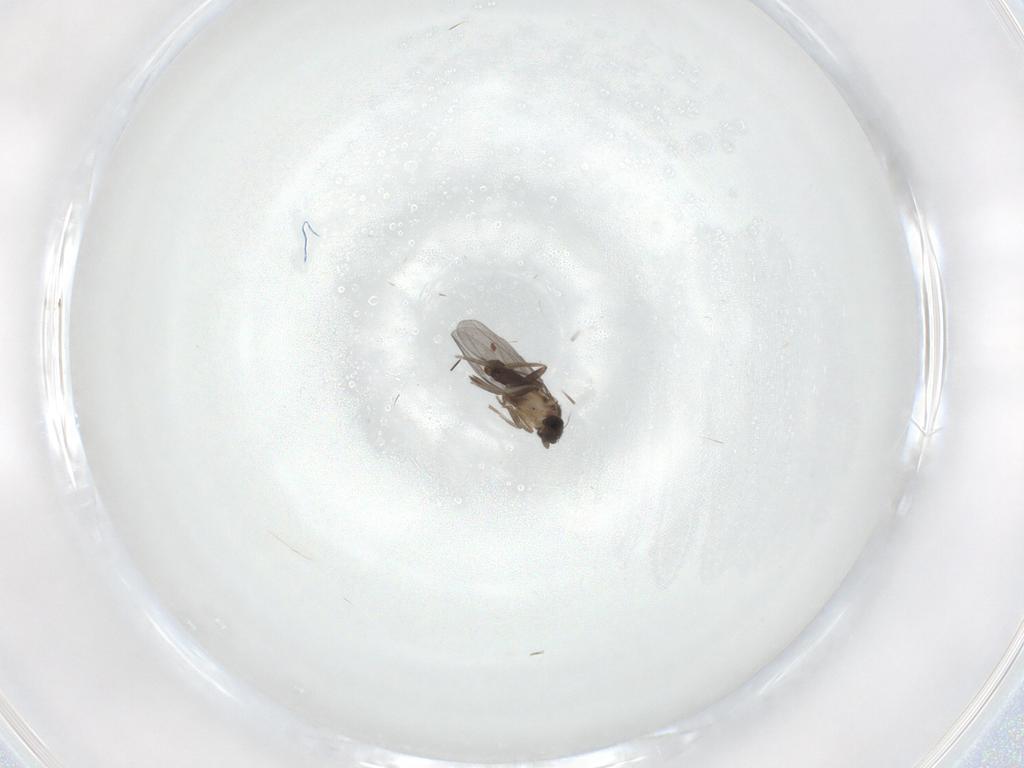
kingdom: Animalia
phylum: Arthropoda
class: Insecta
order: Diptera
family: Cecidomyiidae
